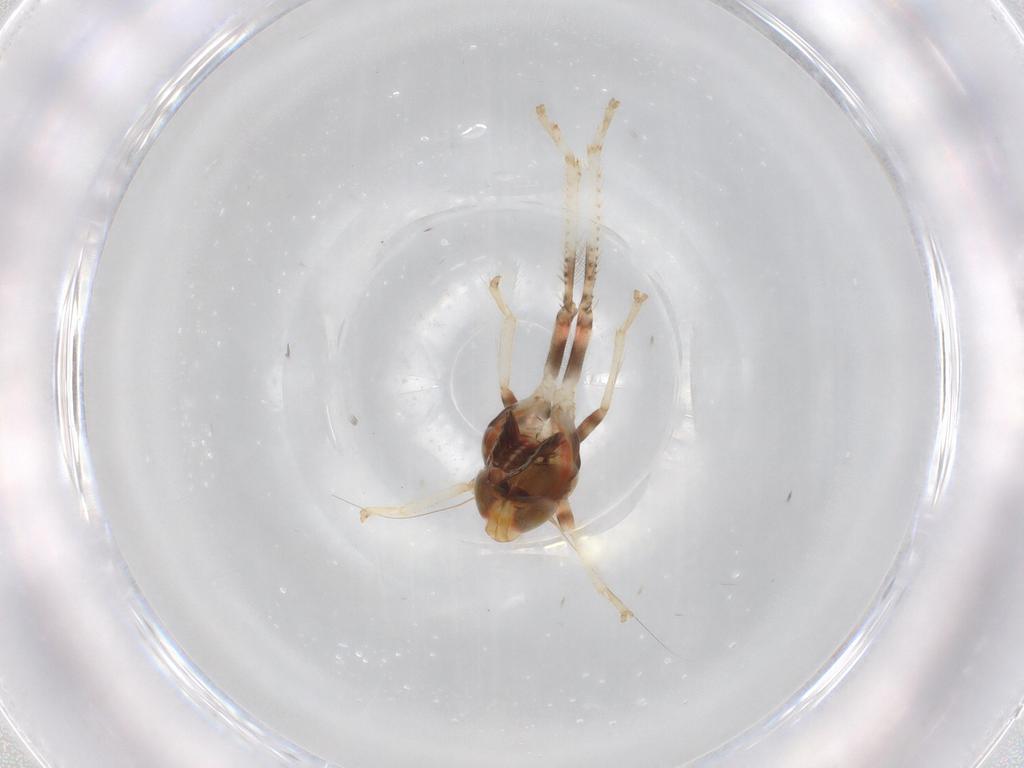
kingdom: Animalia
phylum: Arthropoda
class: Insecta
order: Hemiptera
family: Cicadellidae
